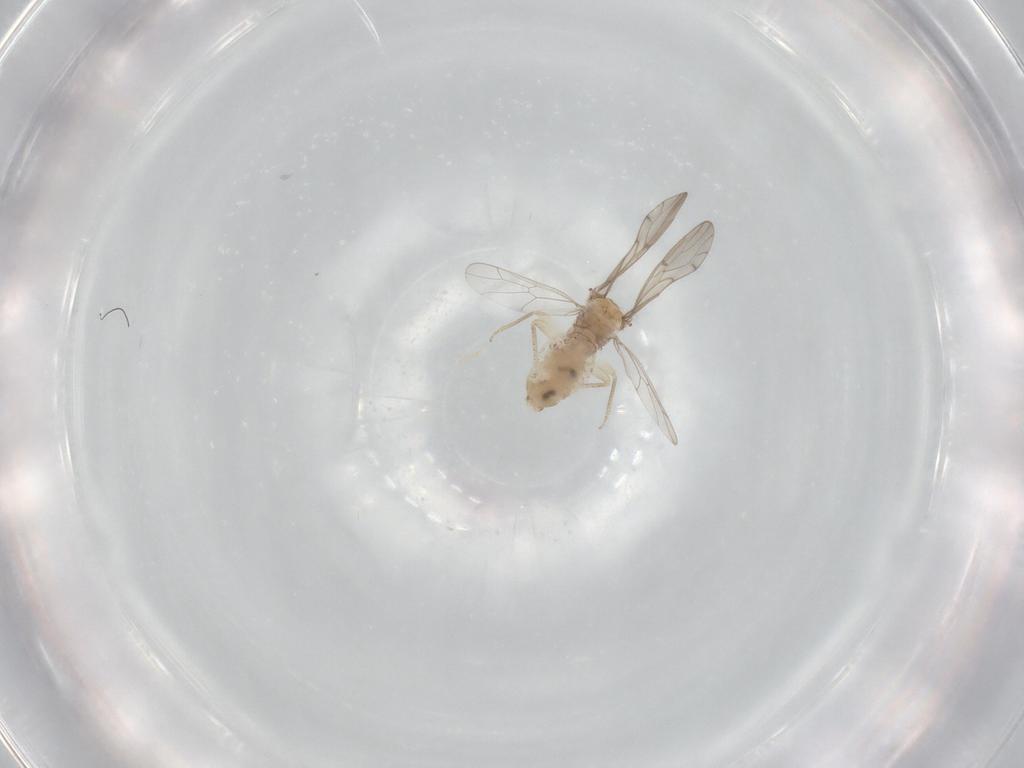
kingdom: Animalia
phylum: Arthropoda
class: Insecta
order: Psocodea
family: Ectopsocidae
